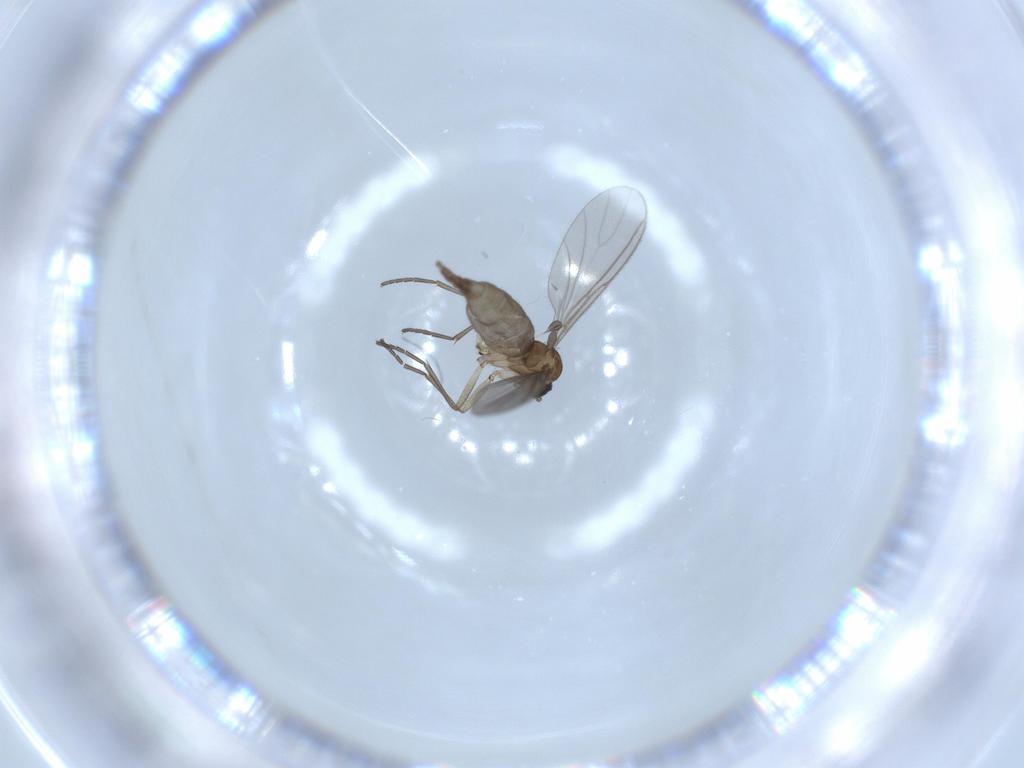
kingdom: Animalia
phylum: Arthropoda
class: Insecta
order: Diptera
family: Sciaridae
